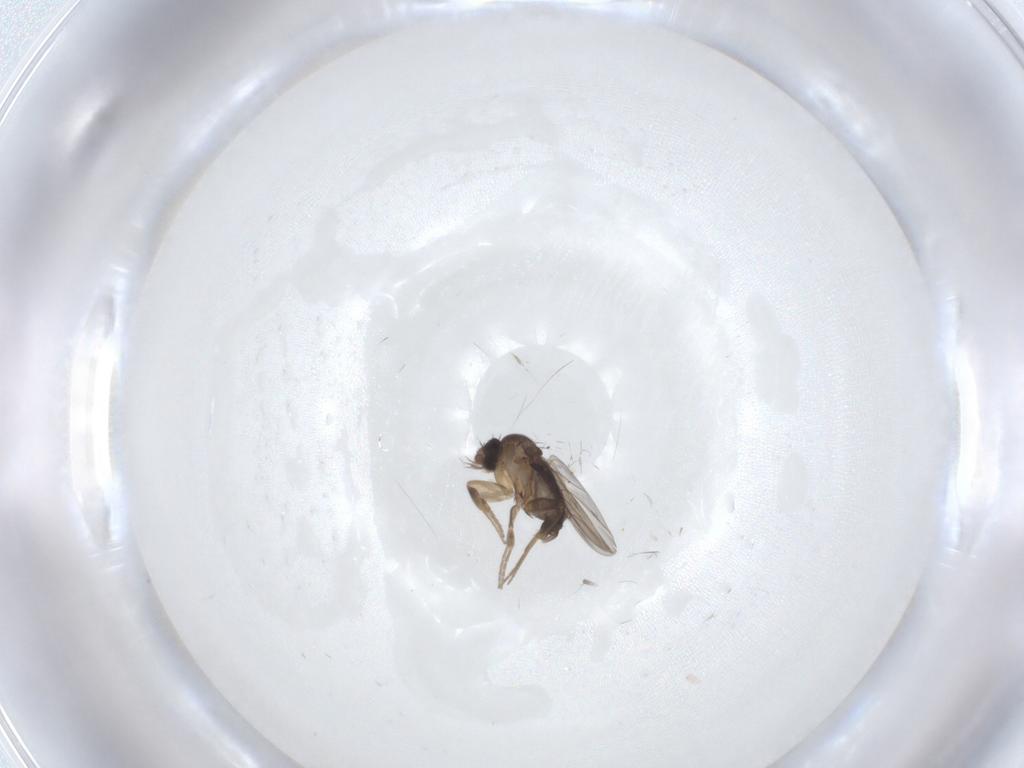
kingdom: Animalia
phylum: Arthropoda
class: Insecta
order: Diptera
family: Phoridae
